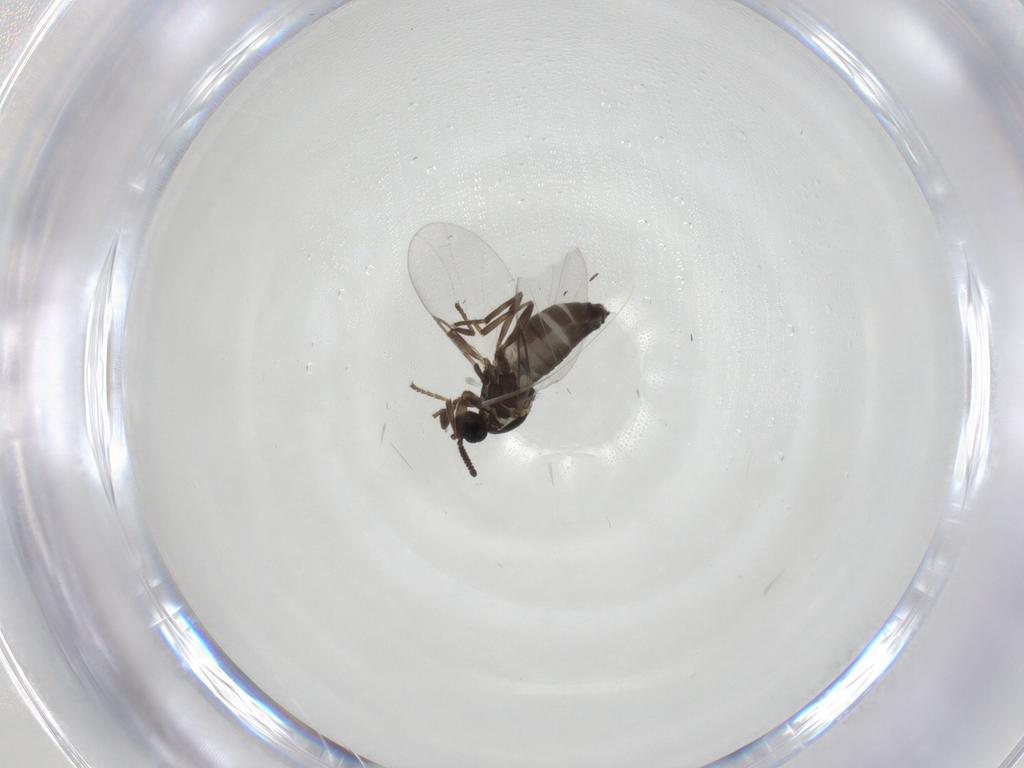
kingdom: Animalia
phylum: Arthropoda
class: Insecta
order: Diptera
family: Scatopsidae
